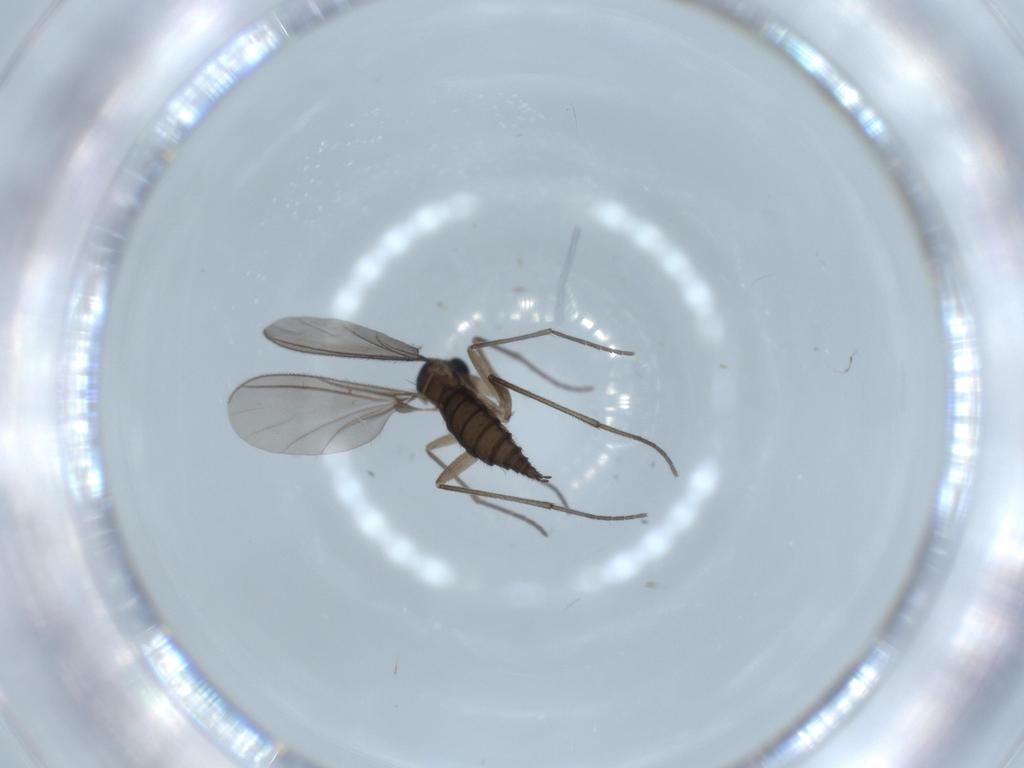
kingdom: Animalia
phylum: Arthropoda
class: Insecta
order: Diptera
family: Sciaridae
